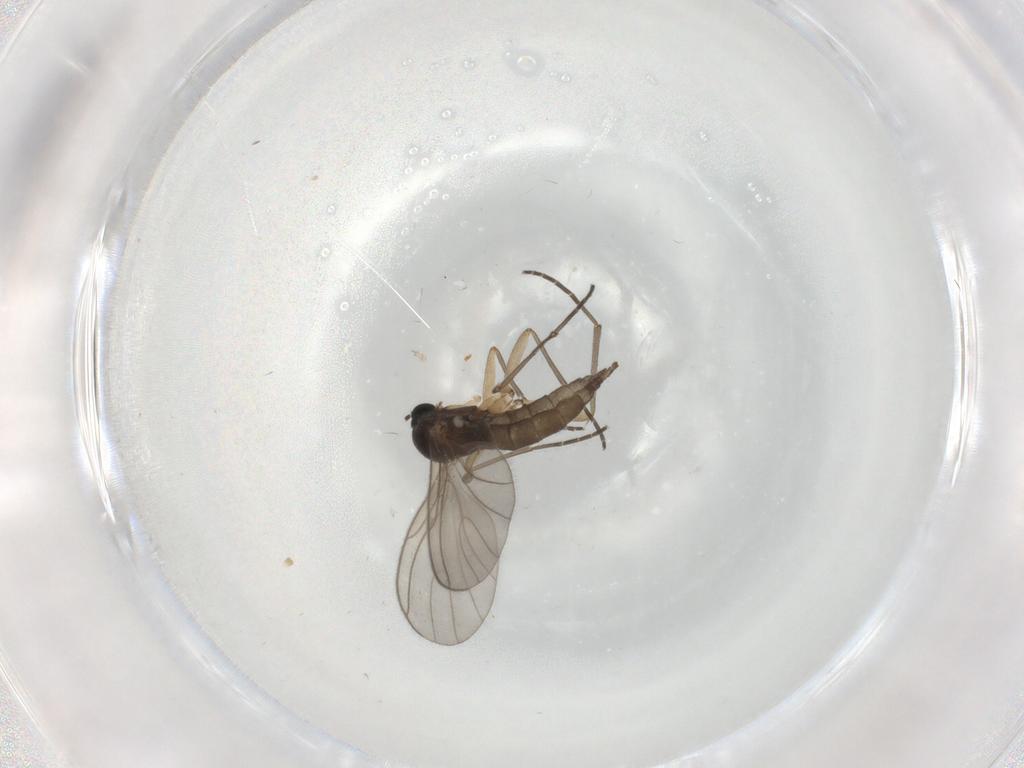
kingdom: Animalia
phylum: Arthropoda
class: Insecta
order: Diptera
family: Sciaridae
